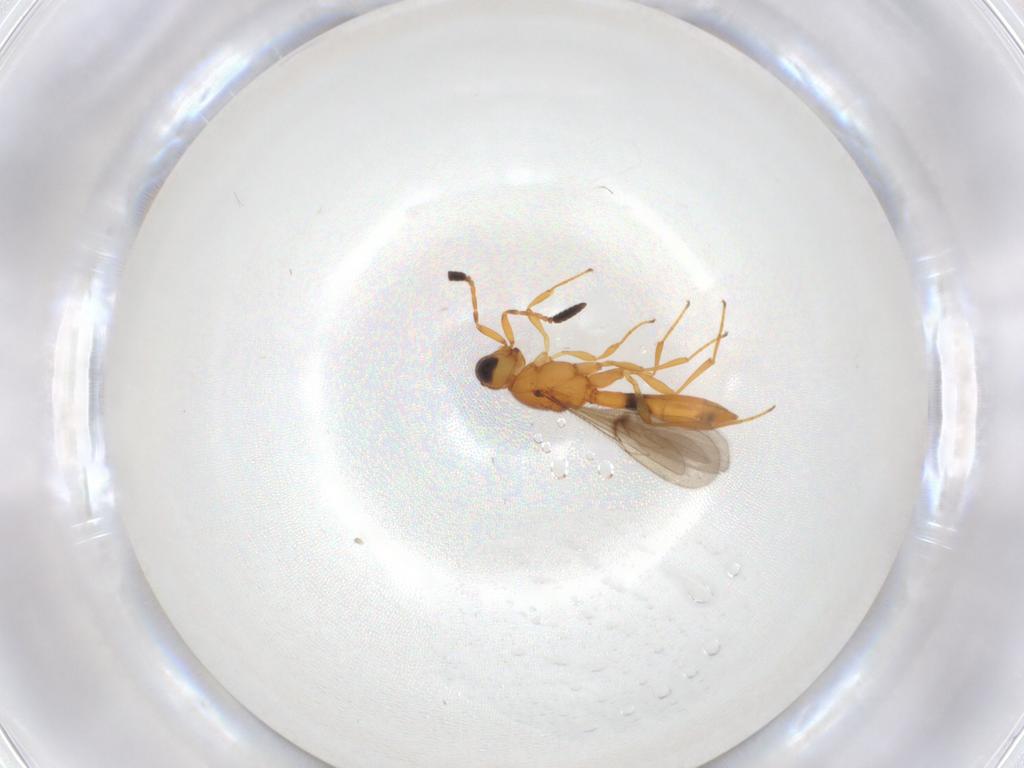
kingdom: Animalia
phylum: Arthropoda
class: Insecta
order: Hymenoptera
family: Scelionidae
